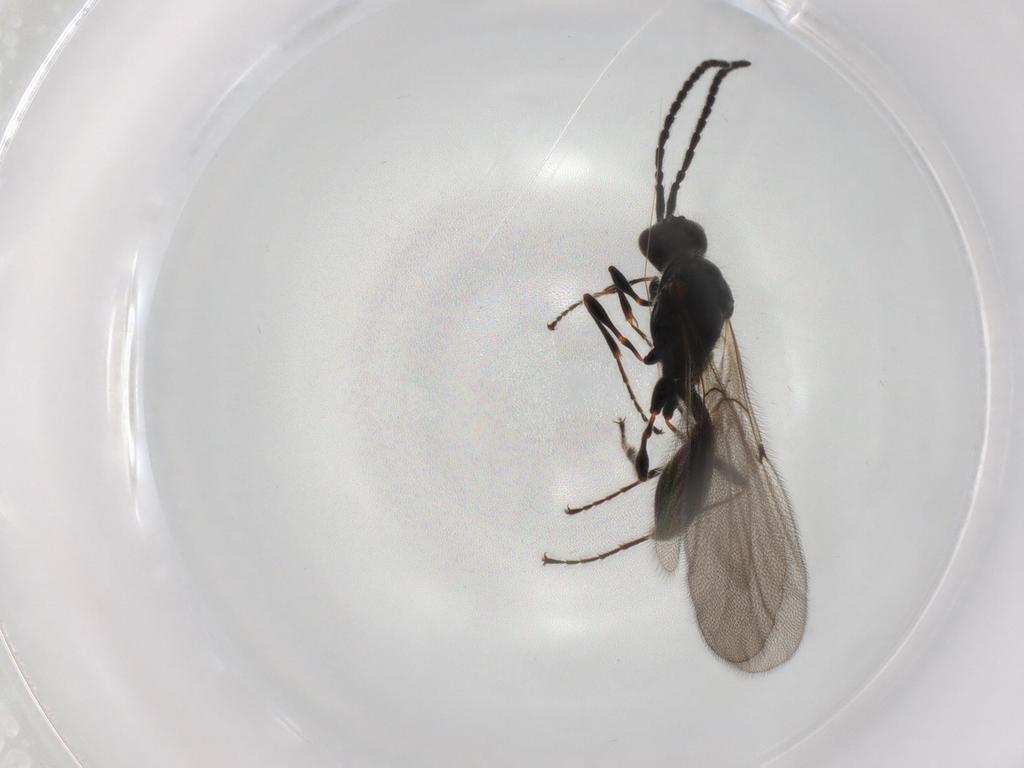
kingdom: Animalia
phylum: Arthropoda
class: Insecta
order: Hymenoptera
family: Diapriidae
